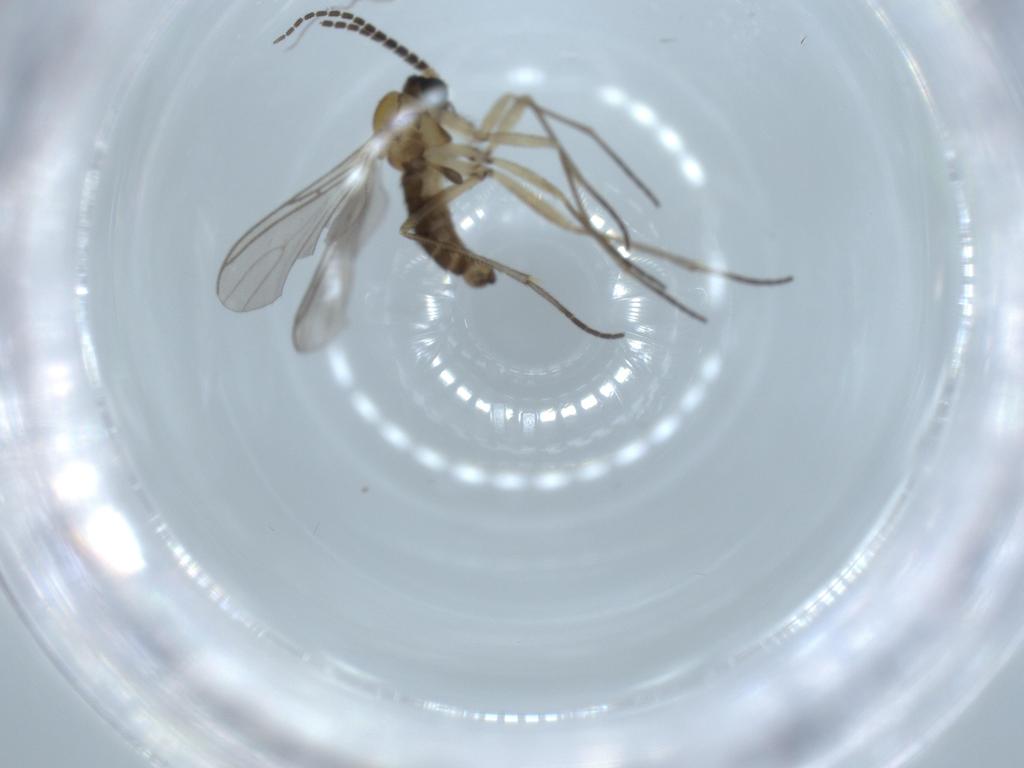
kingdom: Animalia
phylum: Arthropoda
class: Insecta
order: Diptera
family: Sciaridae
